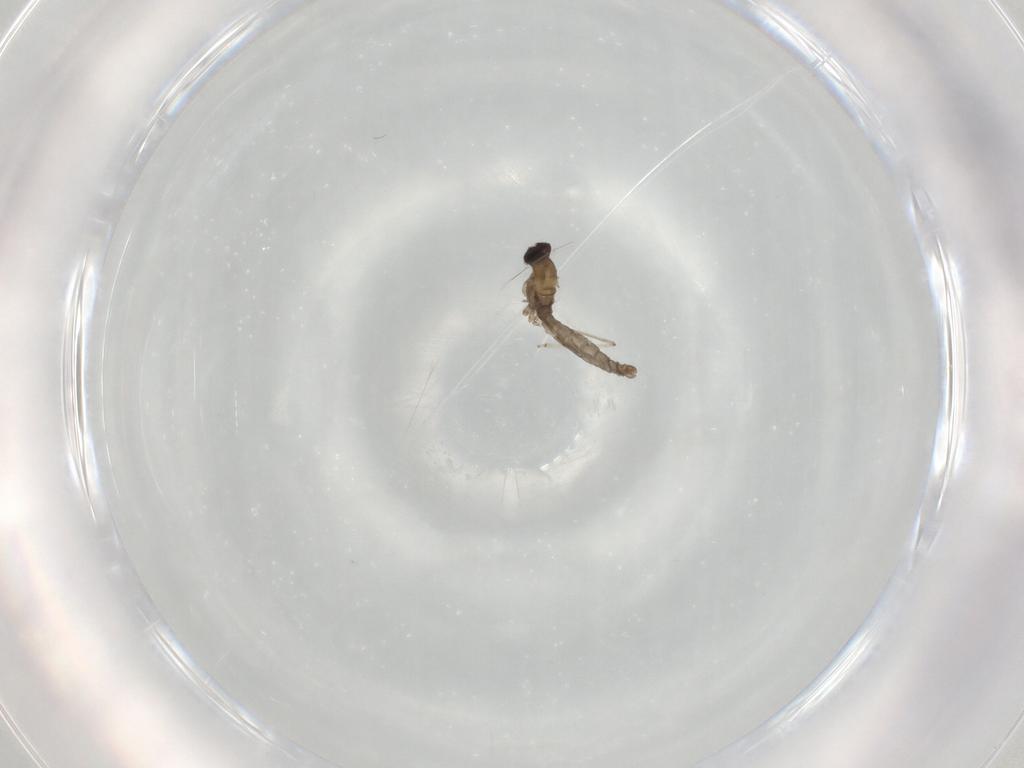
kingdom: Animalia
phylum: Arthropoda
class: Insecta
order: Diptera
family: Cecidomyiidae
